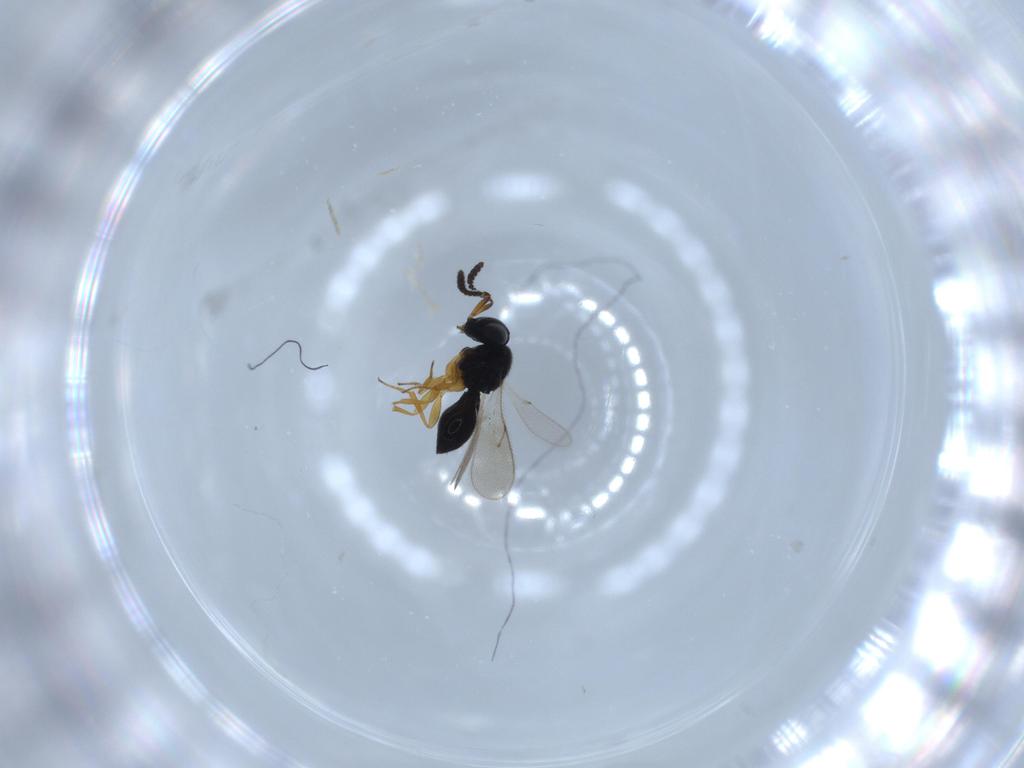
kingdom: Animalia
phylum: Arthropoda
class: Insecta
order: Hymenoptera
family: Scelionidae
